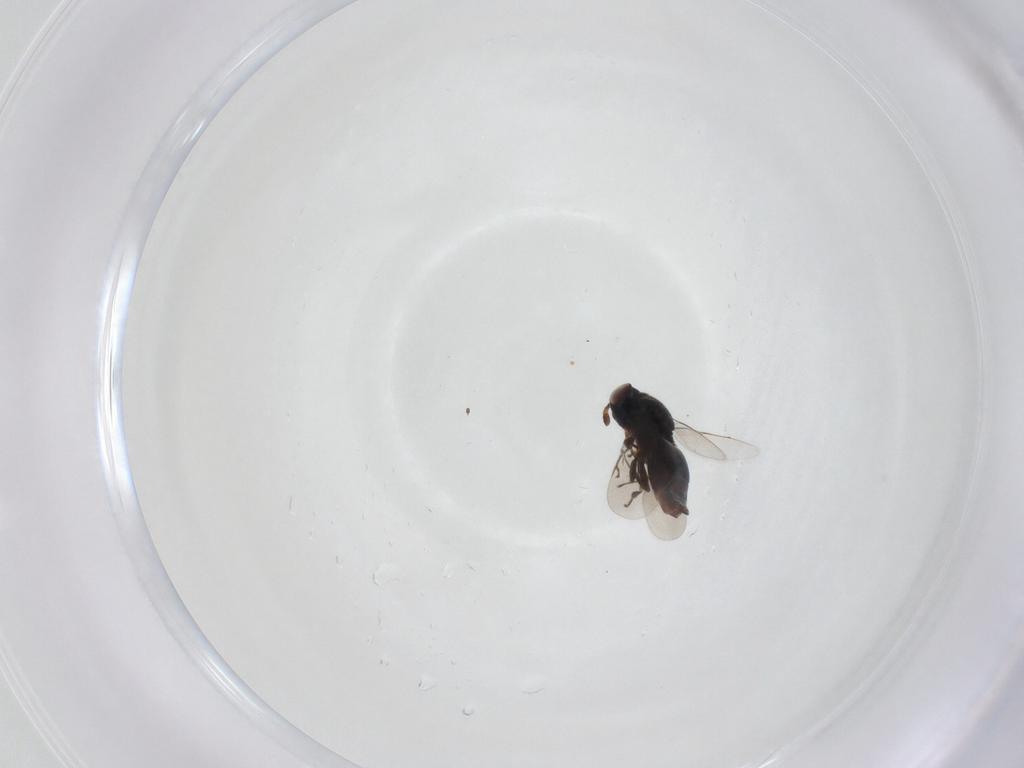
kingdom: Animalia
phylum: Arthropoda
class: Insecta
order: Hymenoptera
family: Eunotidae
